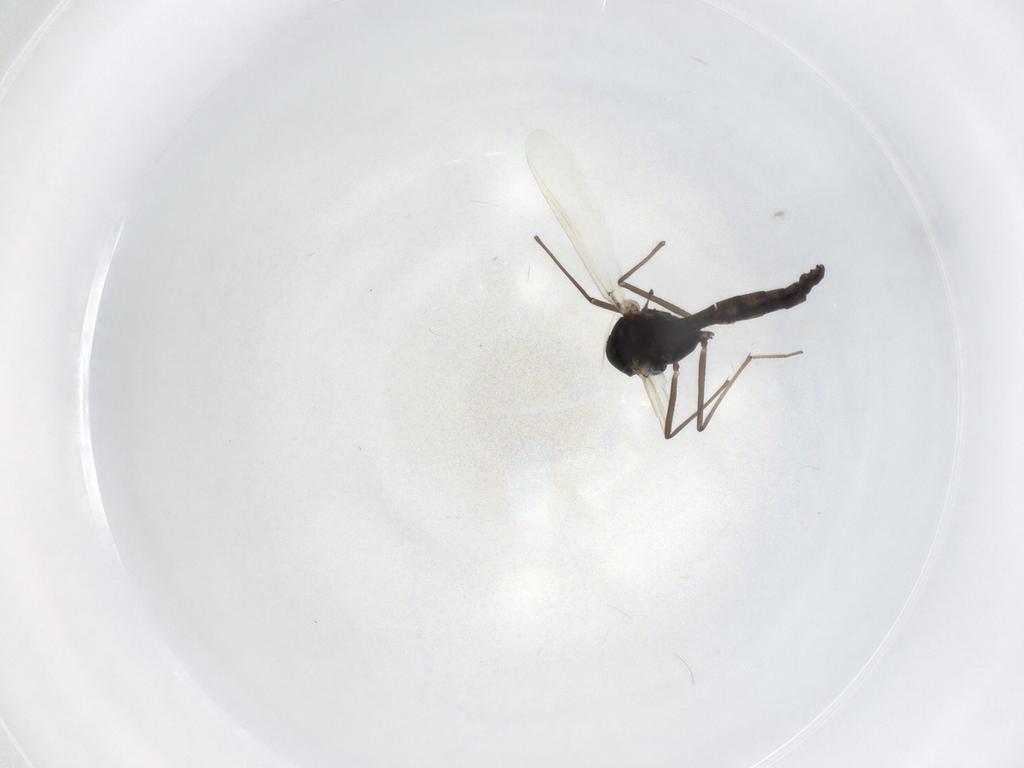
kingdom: Animalia
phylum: Arthropoda
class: Insecta
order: Diptera
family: Chironomidae
